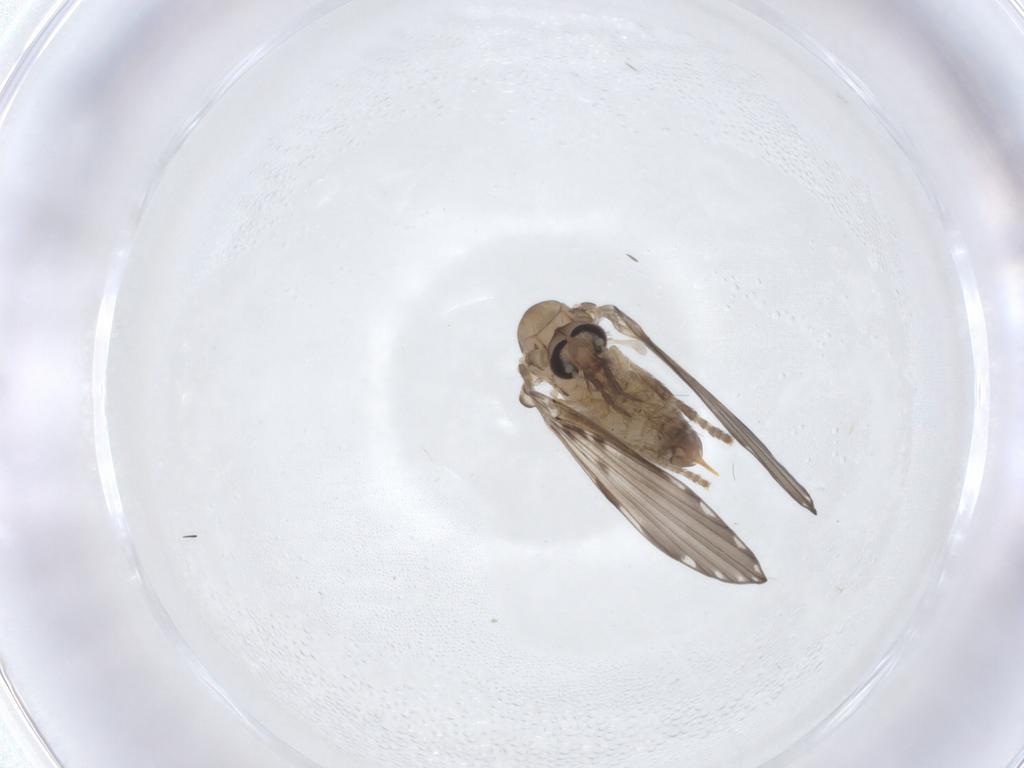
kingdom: Animalia
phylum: Arthropoda
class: Insecta
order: Diptera
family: Psychodidae
